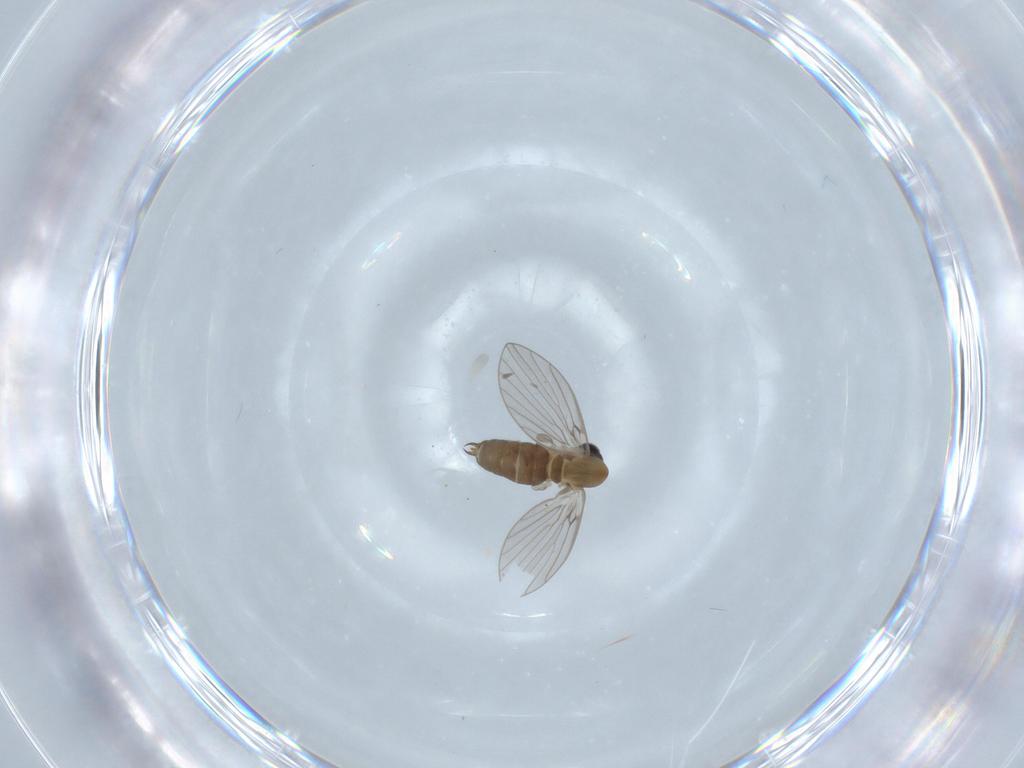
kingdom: Animalia
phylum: Arthropoda
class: Insecta
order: Diptera
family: Psychodidae
